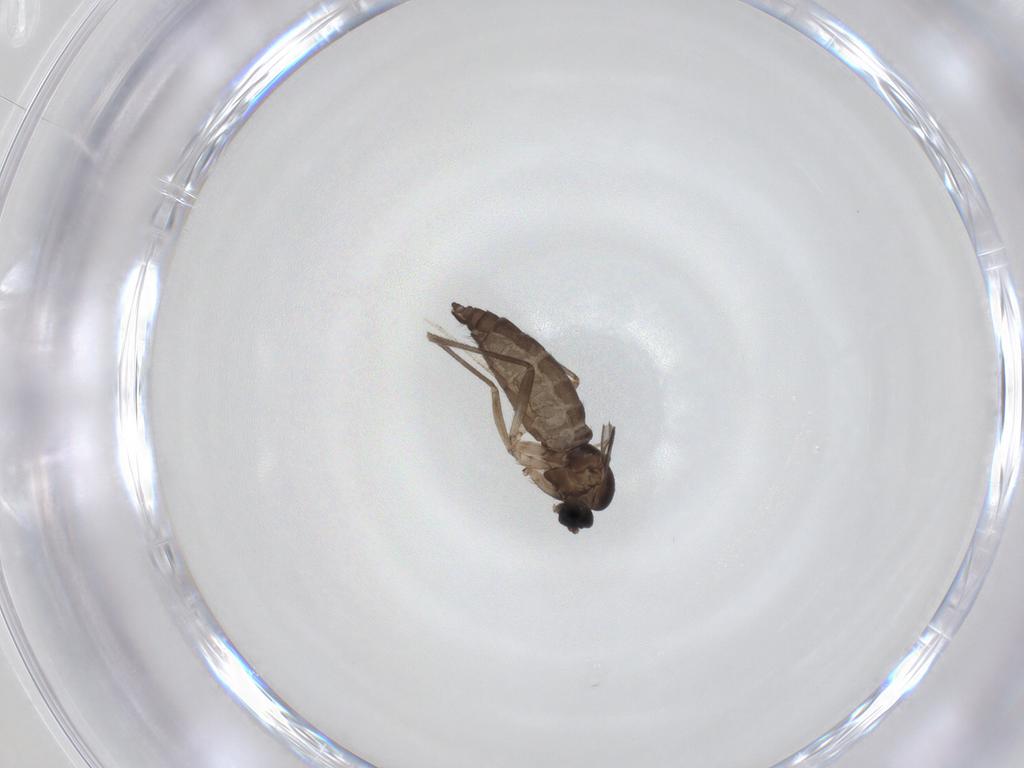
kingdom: Animalia
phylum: Arthropoda
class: Insecta
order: Diptera
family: Sciaridae
